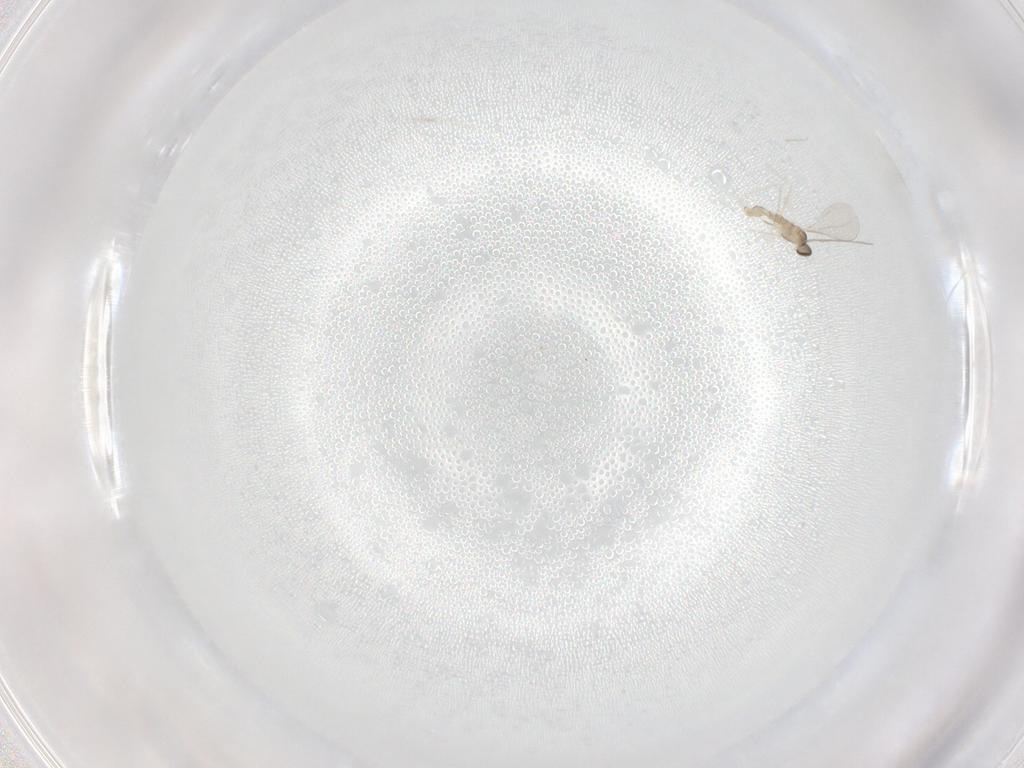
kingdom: Animalia
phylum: Arthropoda
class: Insecta
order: Diptera
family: Cecidomyiidae
